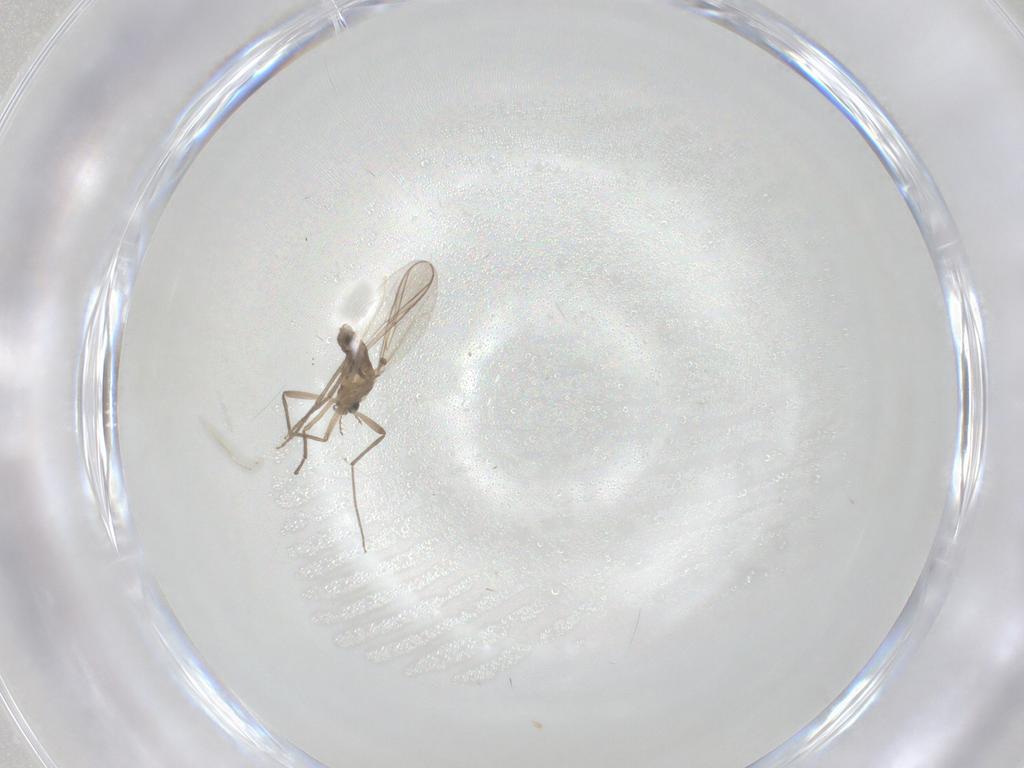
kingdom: Animalia
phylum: Arthropoda
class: Insecta
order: Diptera
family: Chironomidae
